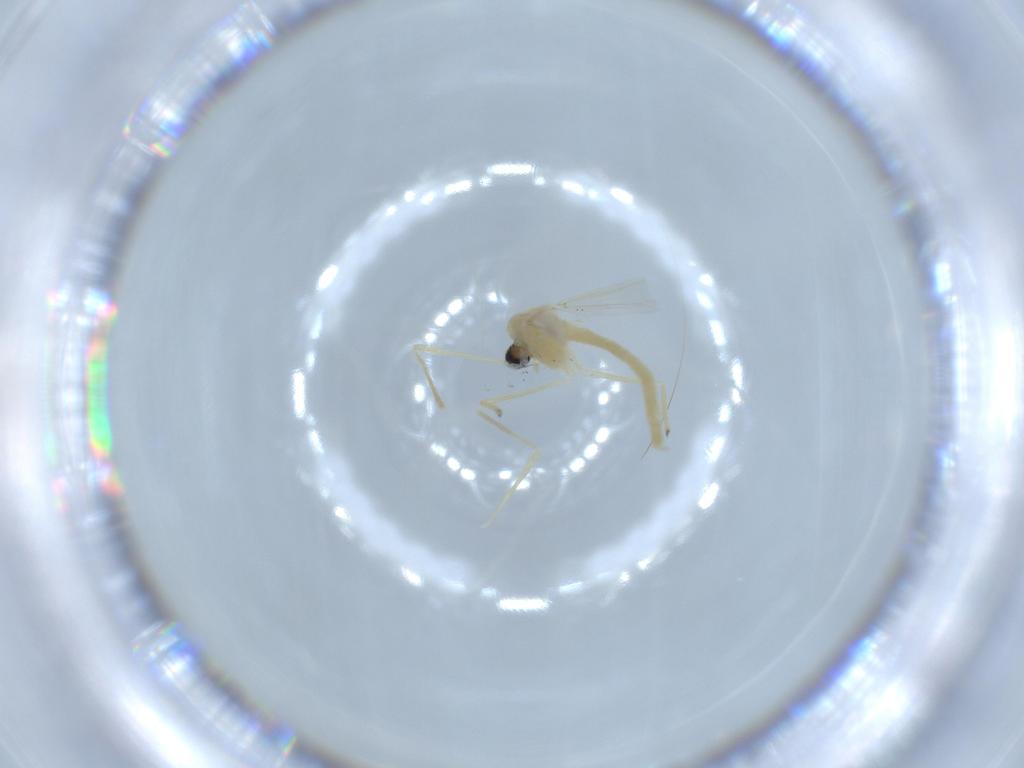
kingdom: Animalia
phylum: Arthropoda
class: Insecta
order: Diptera
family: Chironomidae
